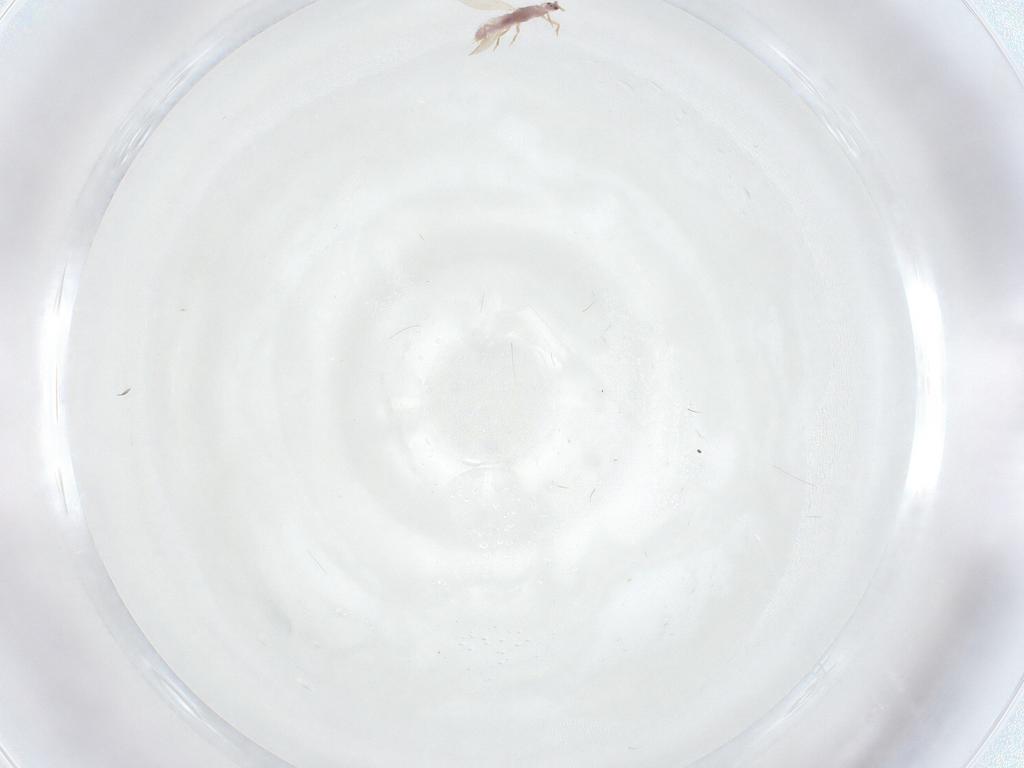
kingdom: Animalia
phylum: Arthropoda
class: Insecta
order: Hemiptera
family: Pseudococcidae
